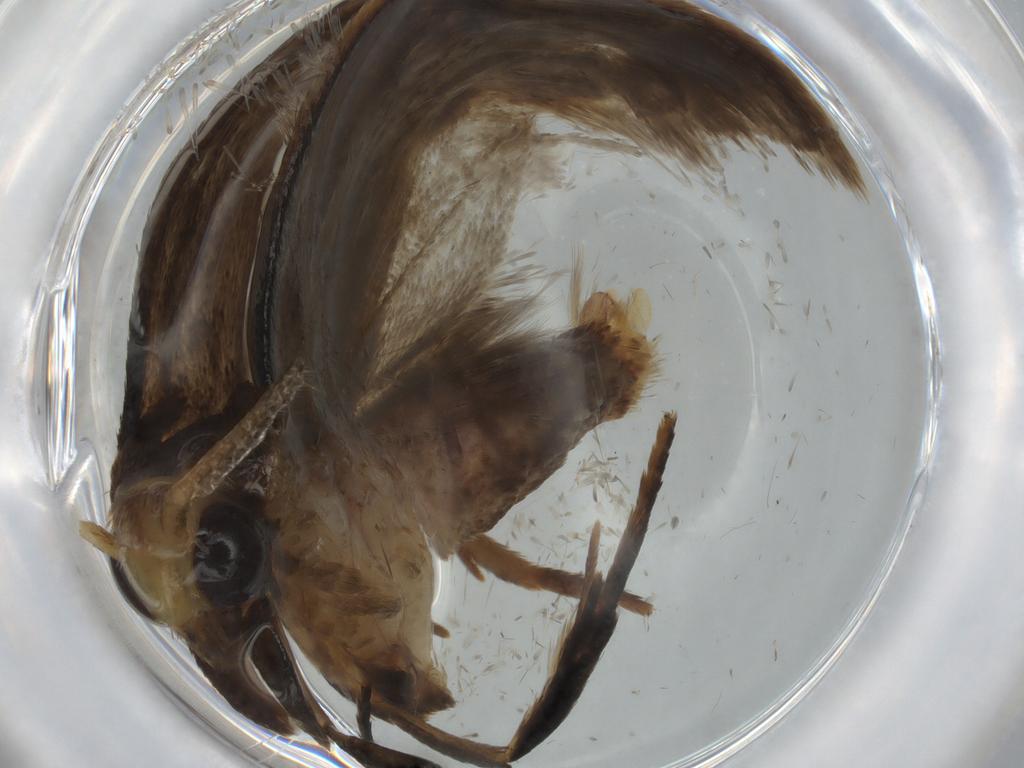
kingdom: Animalia
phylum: Arthropoda
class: Insecta
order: Lepidoptera
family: Oecophoridae
